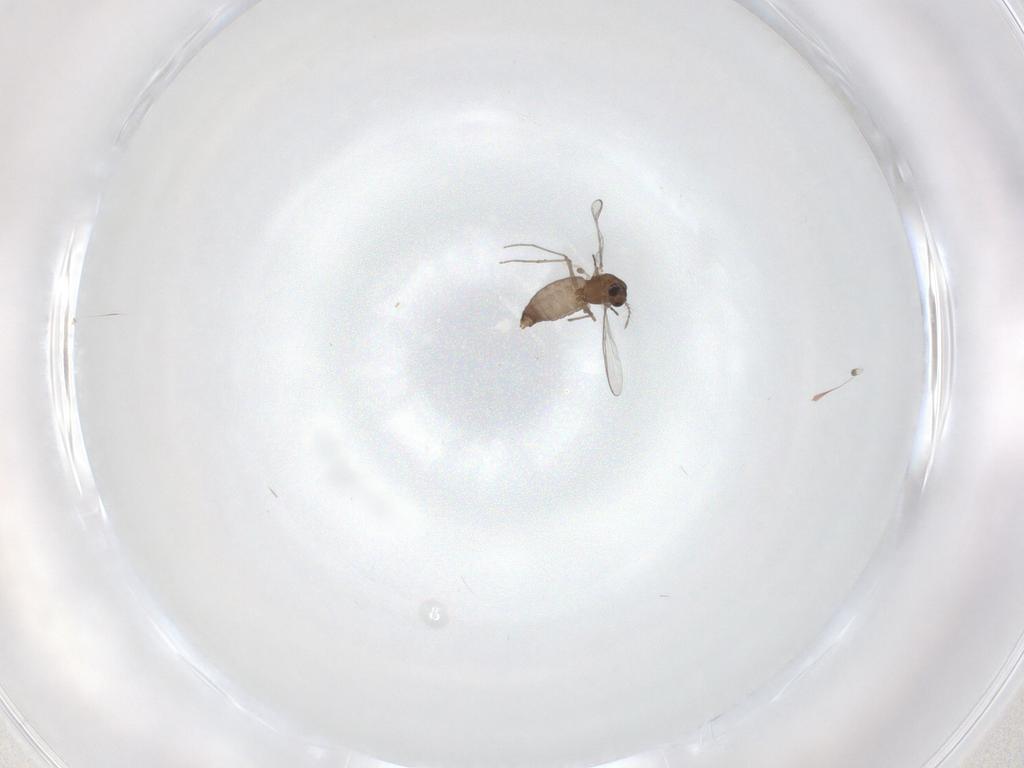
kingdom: Animalia
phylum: Arthropoda
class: Insecta
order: Diptera
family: Chironomidae
